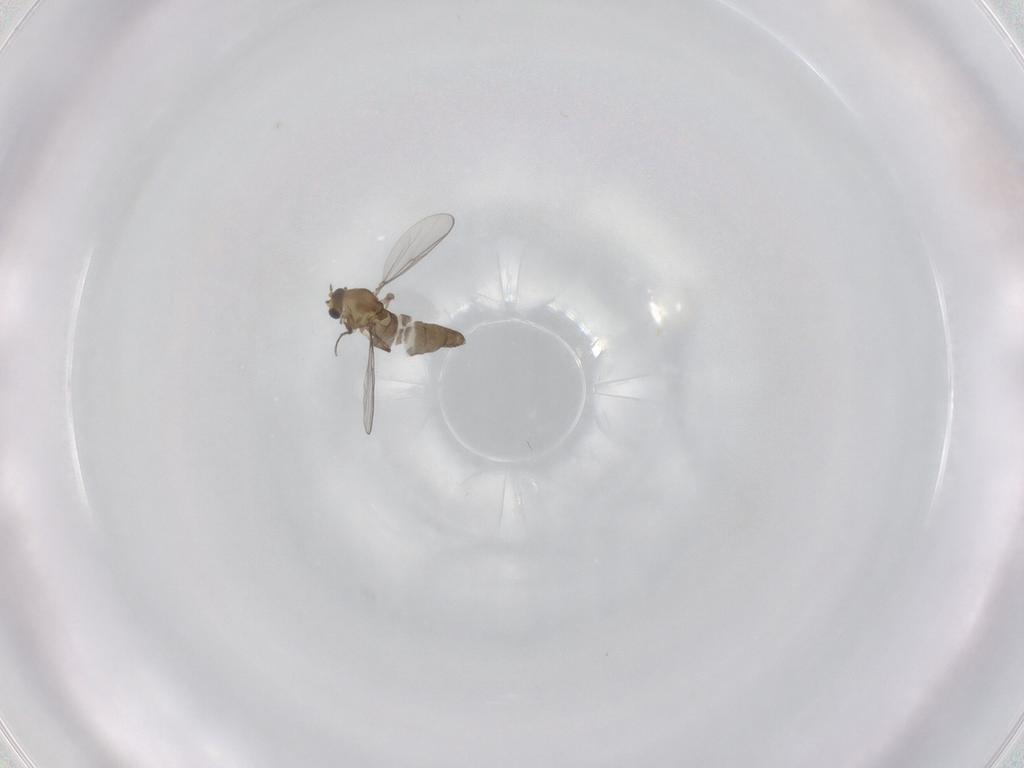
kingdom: Animalia
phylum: Arthropoda
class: Insecta
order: Diptera
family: Chironomidae
